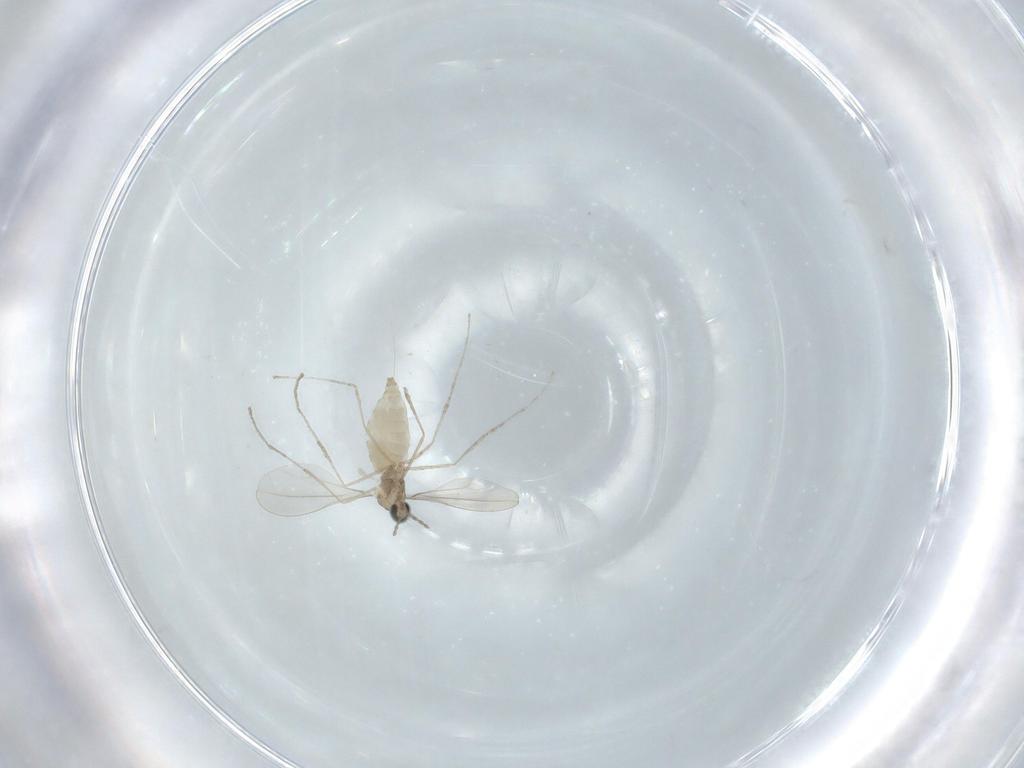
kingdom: Animalia
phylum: Arthropoda
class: Insecta
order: Diptera
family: Cecidomyiidae
